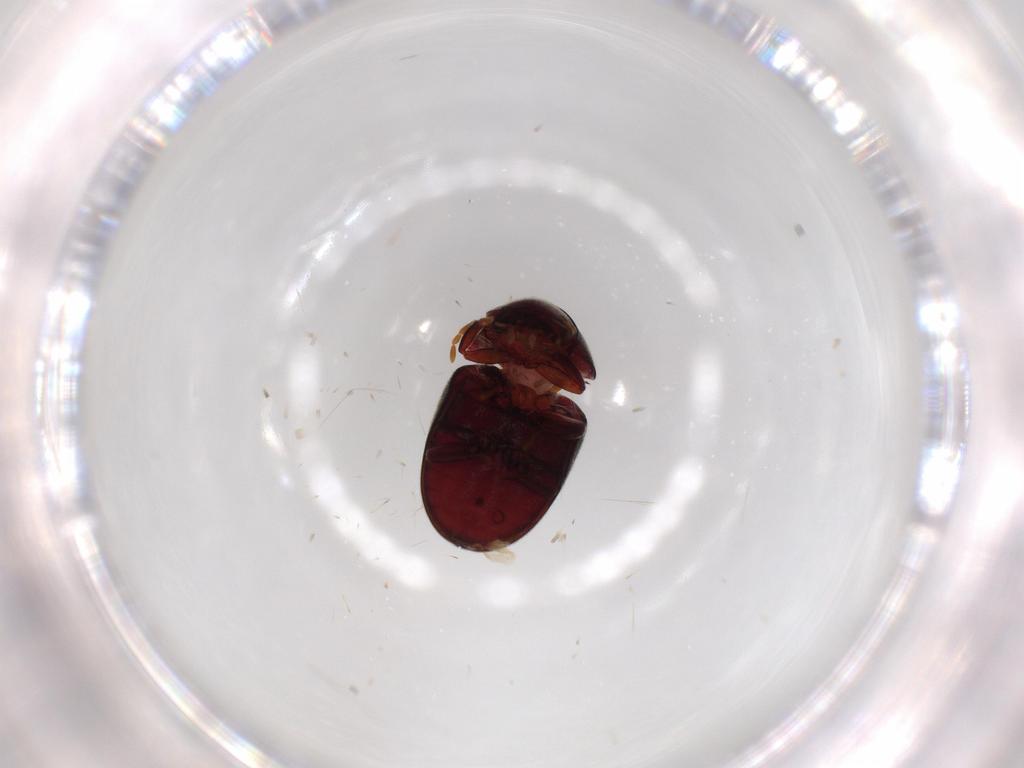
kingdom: Animalia
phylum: Arthropoda
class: Insecta
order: Coleoptera
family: Ptinidae
